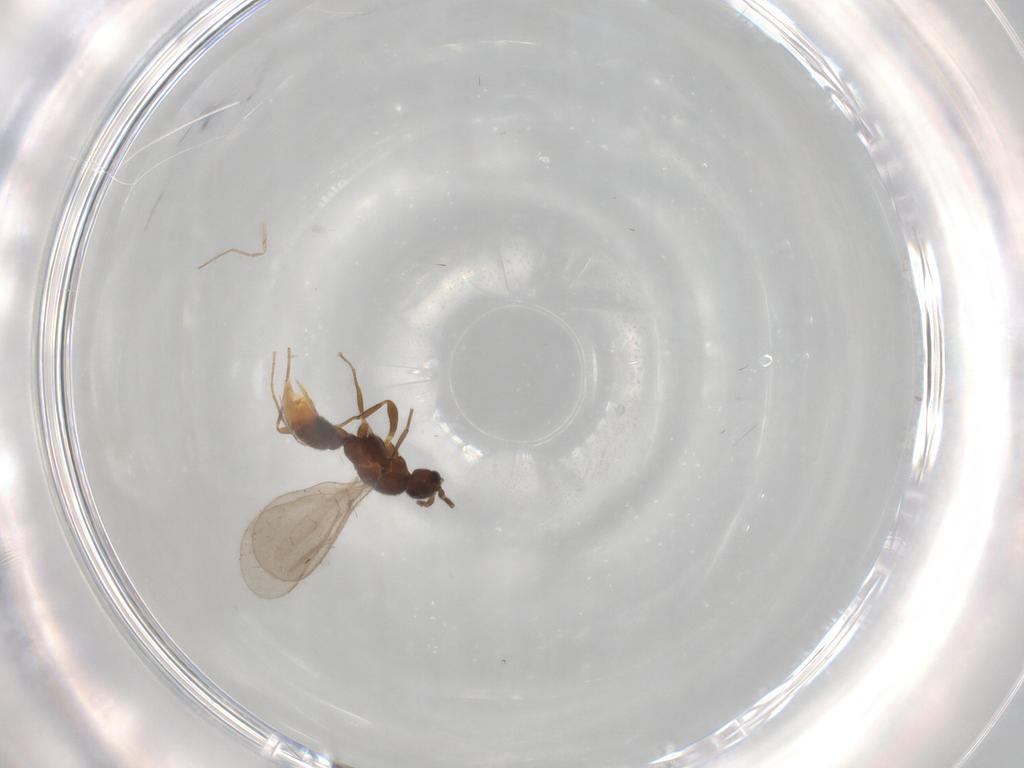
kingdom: Animalia
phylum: Arthropoda
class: Insecta
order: Hymenoptera
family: Formicidae
